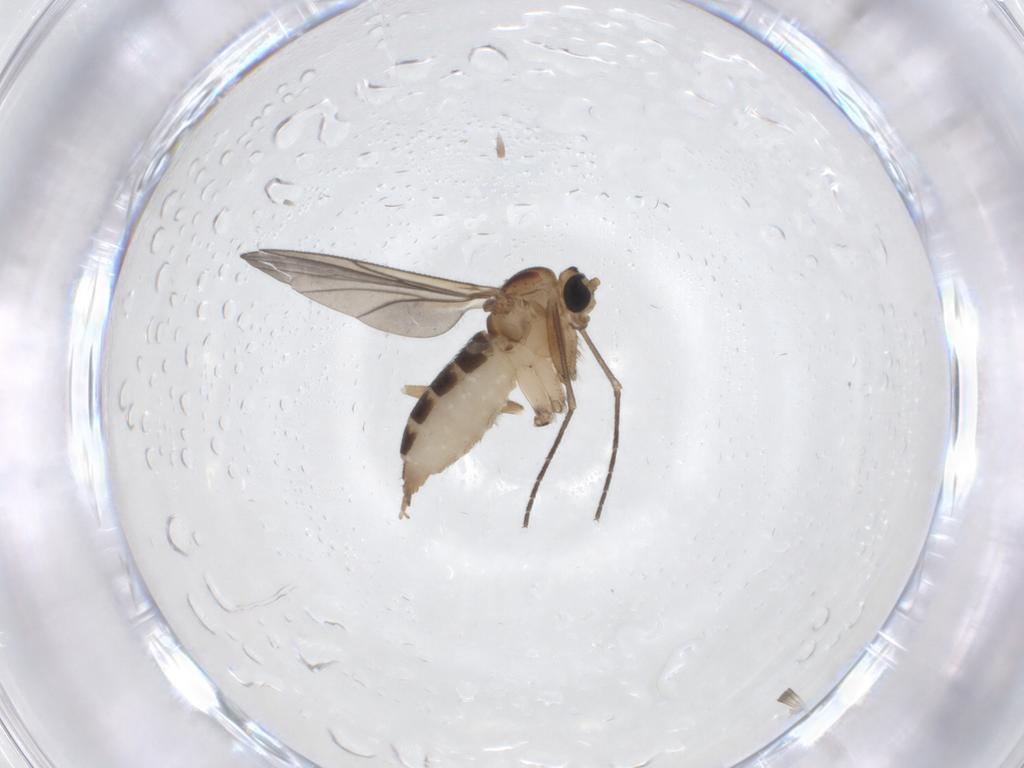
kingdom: Animalia
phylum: Arthropoda
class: Insecta
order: Diptera
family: Sciaridae
